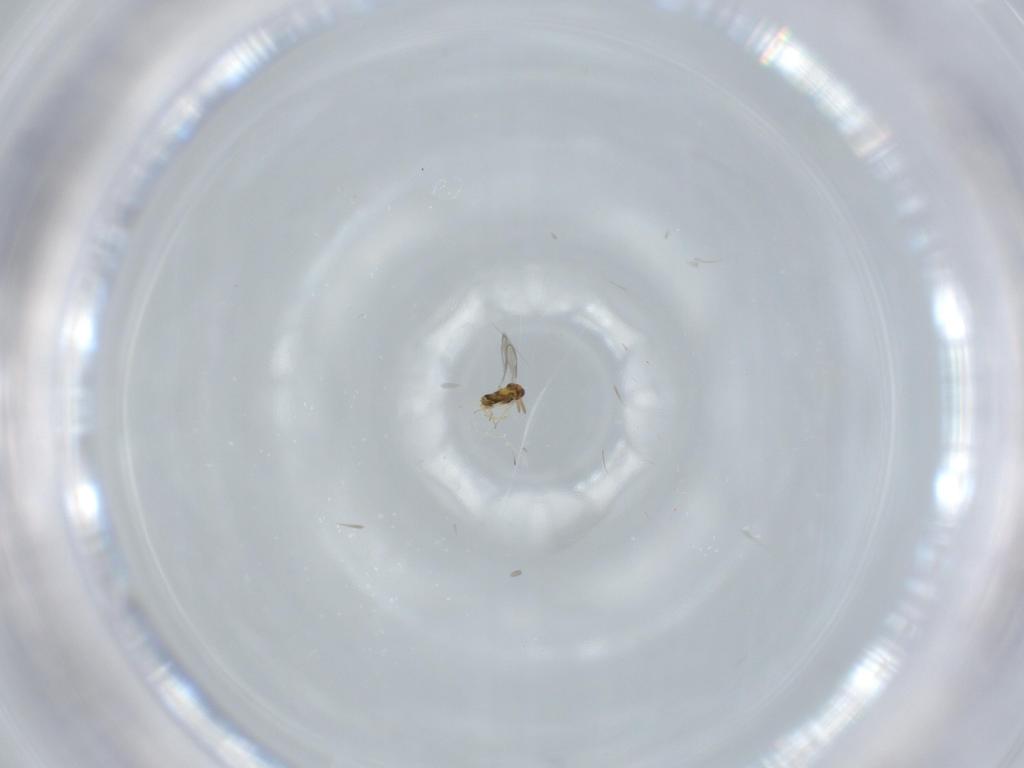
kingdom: Animalia
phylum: Arthropoda
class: Insecta
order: Hymenoptera
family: Aphelinidae
